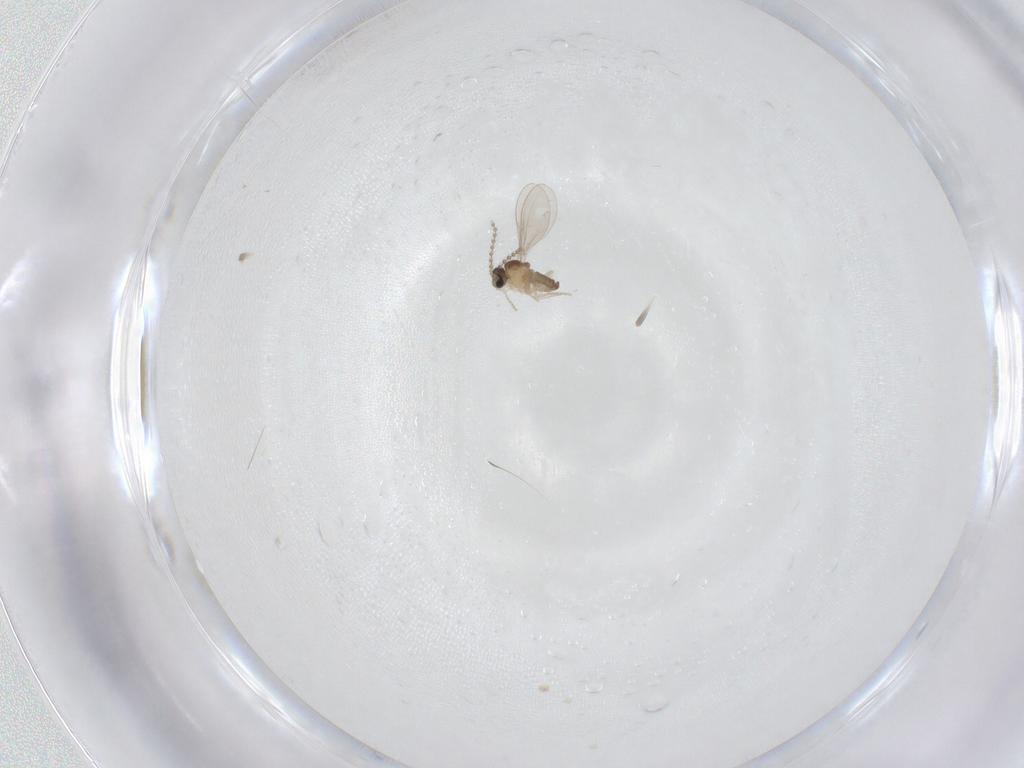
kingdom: Animalia
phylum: Arthropoda
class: Insecta
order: Diptera
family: Cecidomyiidae
